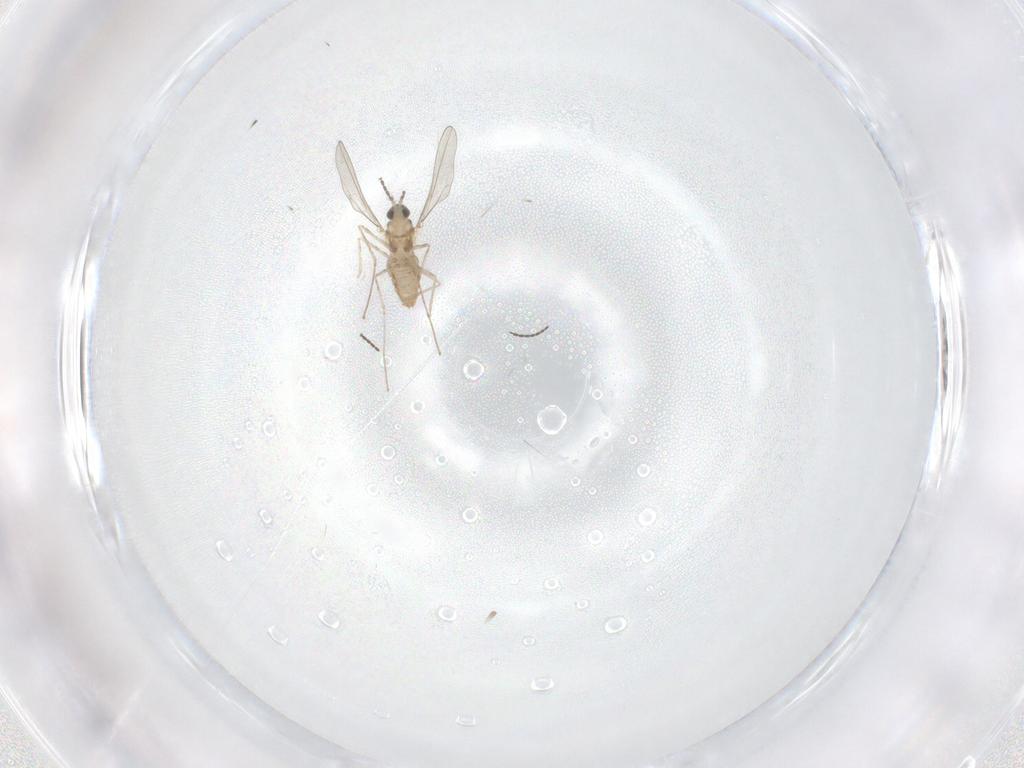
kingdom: Animalia
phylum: Arthropoda
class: Insecta
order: Diptera
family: Cecidomyiidae
